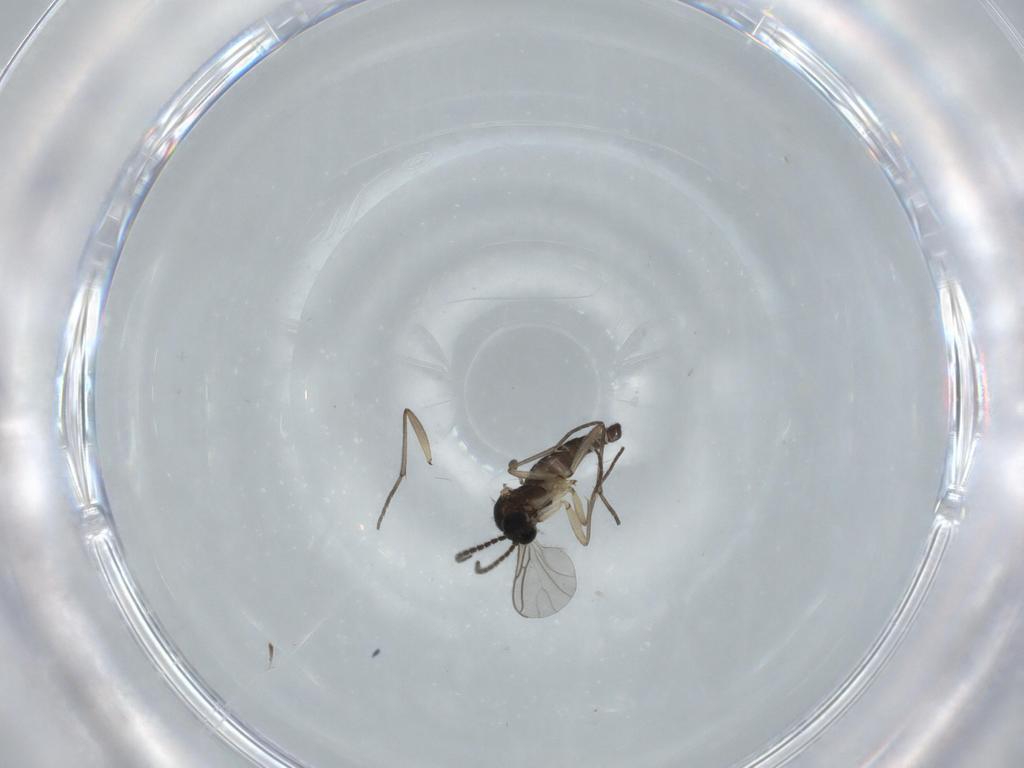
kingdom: Animalia
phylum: Arthropoda
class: Insecta
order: Diptera
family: Sciaridae
